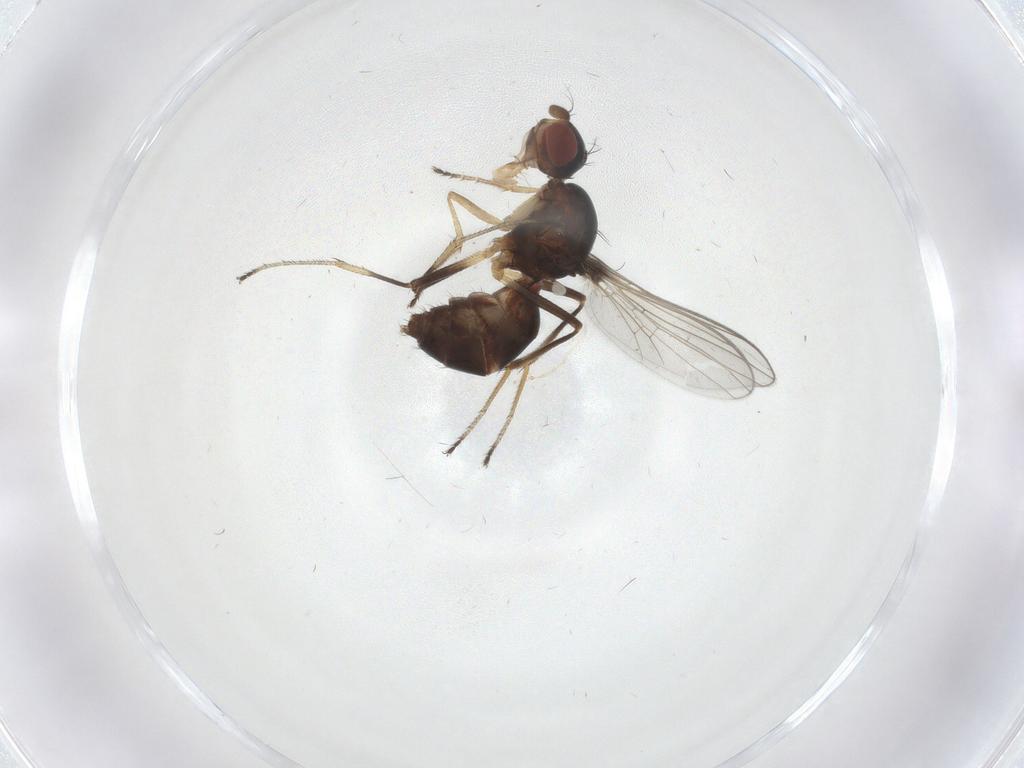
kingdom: Animalia
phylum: Arthropoda
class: Insecta
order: Diptera
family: Sepsidae
